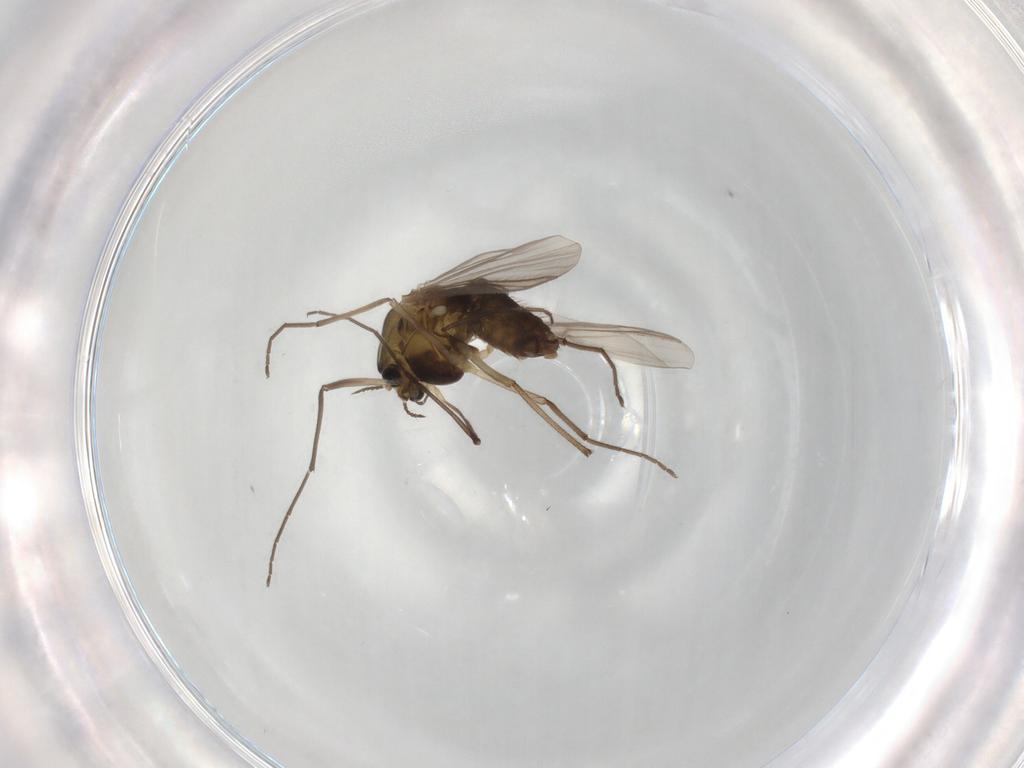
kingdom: Animalia
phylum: Arthropoda
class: Insecta
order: Diptera
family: Chironomidae
